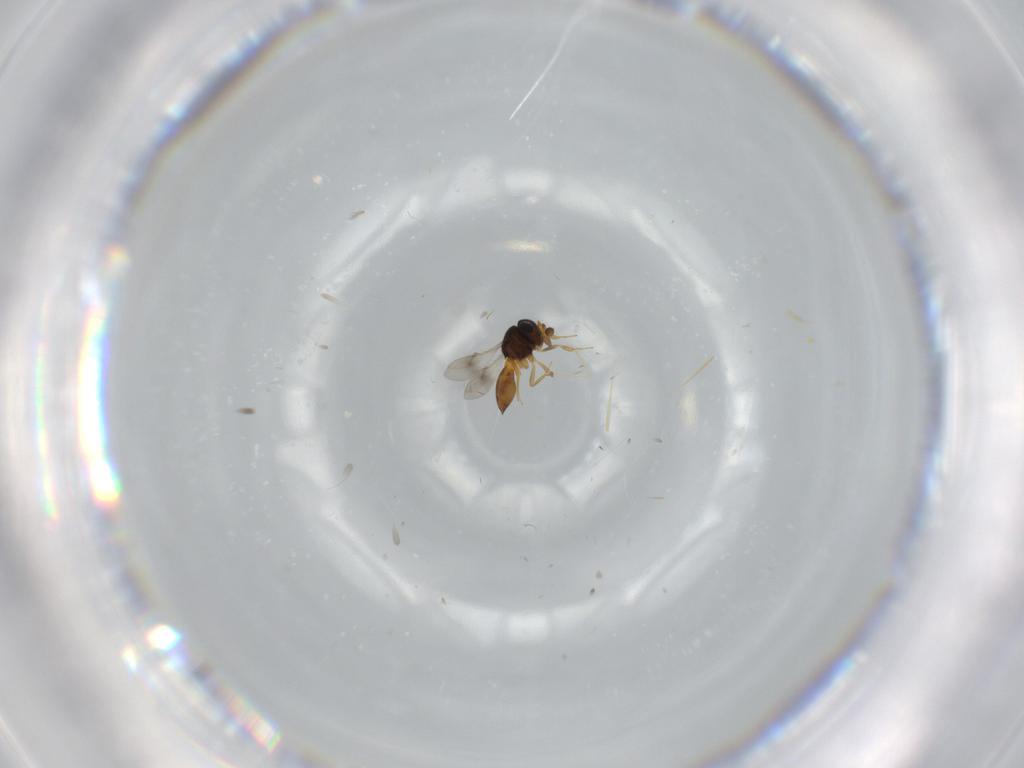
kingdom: Animalia
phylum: Arthropoda
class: Insecta
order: Hymenoptera
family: Scelionidae
